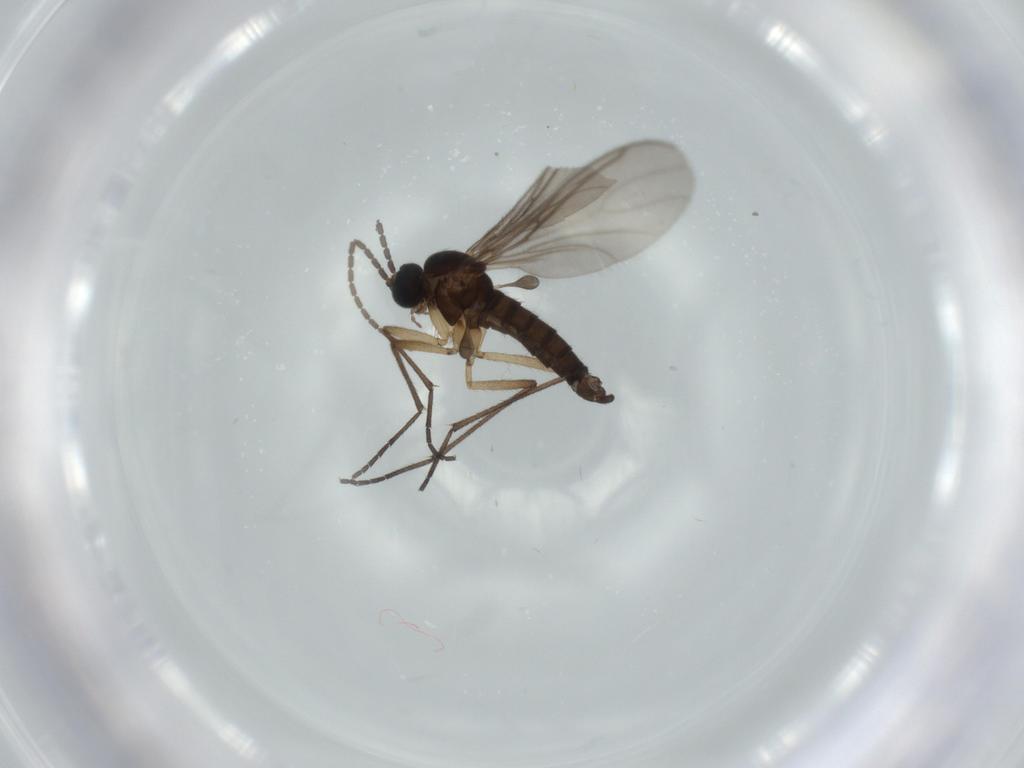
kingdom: Animalia
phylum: Arthropoda
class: Insecta
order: Diptera
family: Sciaridae
